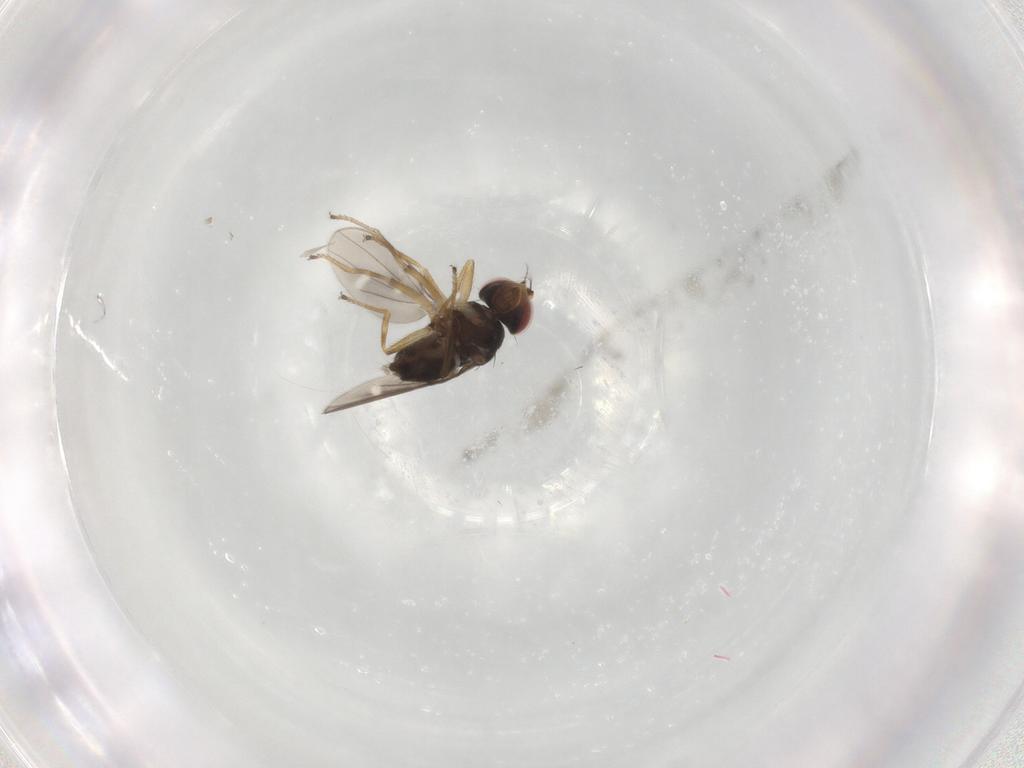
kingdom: Animalia
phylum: Arthropoda
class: Insecta
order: Diptera
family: Ephydridae
